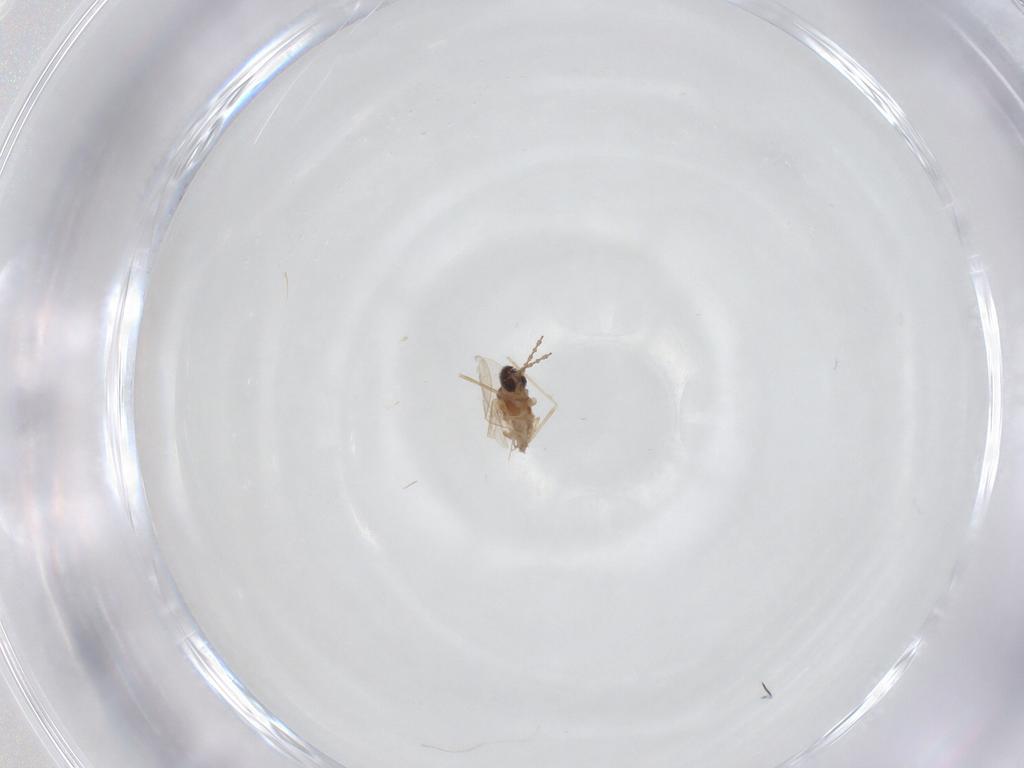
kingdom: Animalia
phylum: Arthropoda
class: Insecta
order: Diptera
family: Cecidomyiidae
